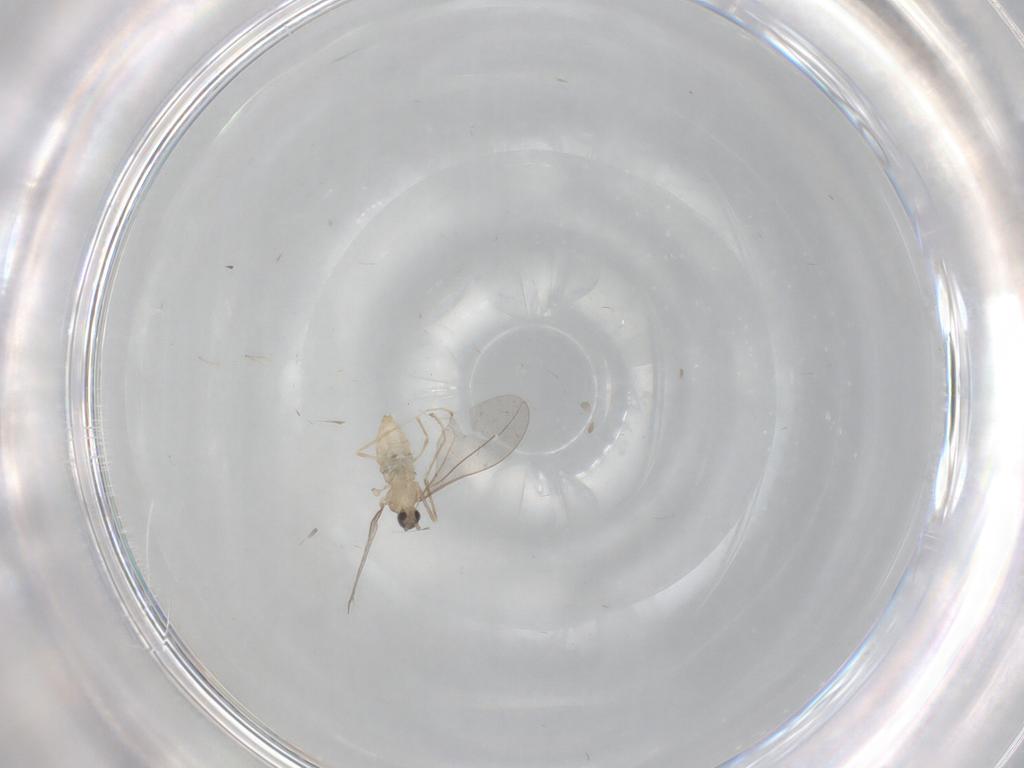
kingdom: Animalia
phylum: Arthropoda
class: Insecta
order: Diptera
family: Cecidomyiidae
